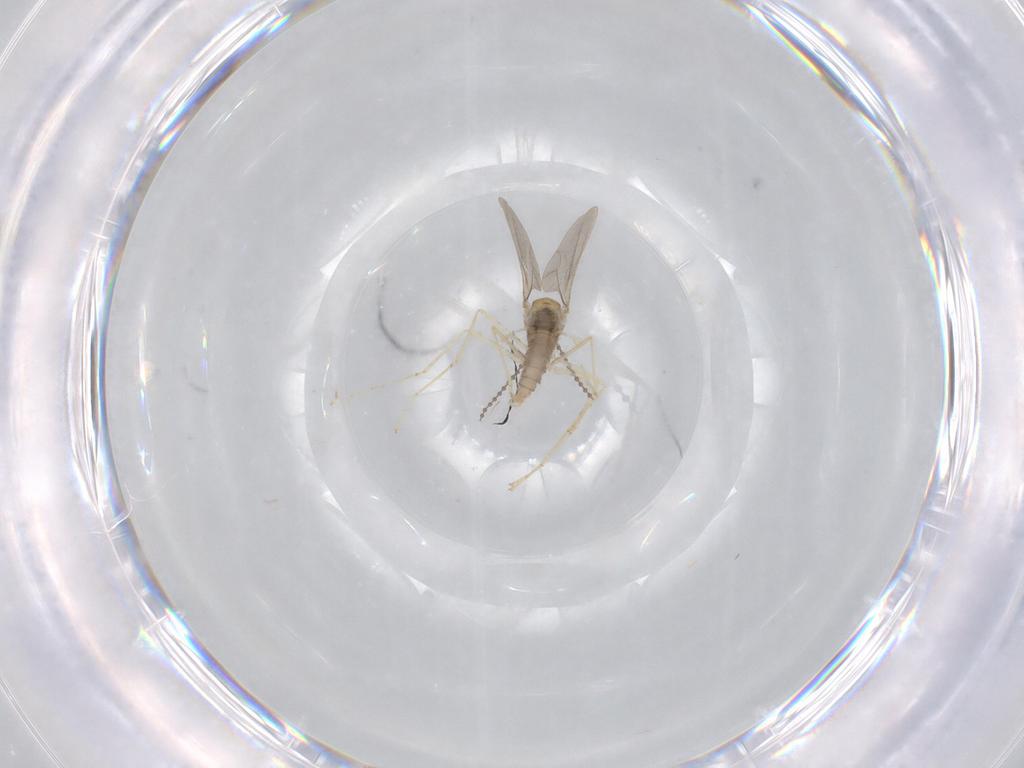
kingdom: Animalia
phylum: Arthropoda
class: Insecta
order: Diptera
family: Cecidomyiidae
